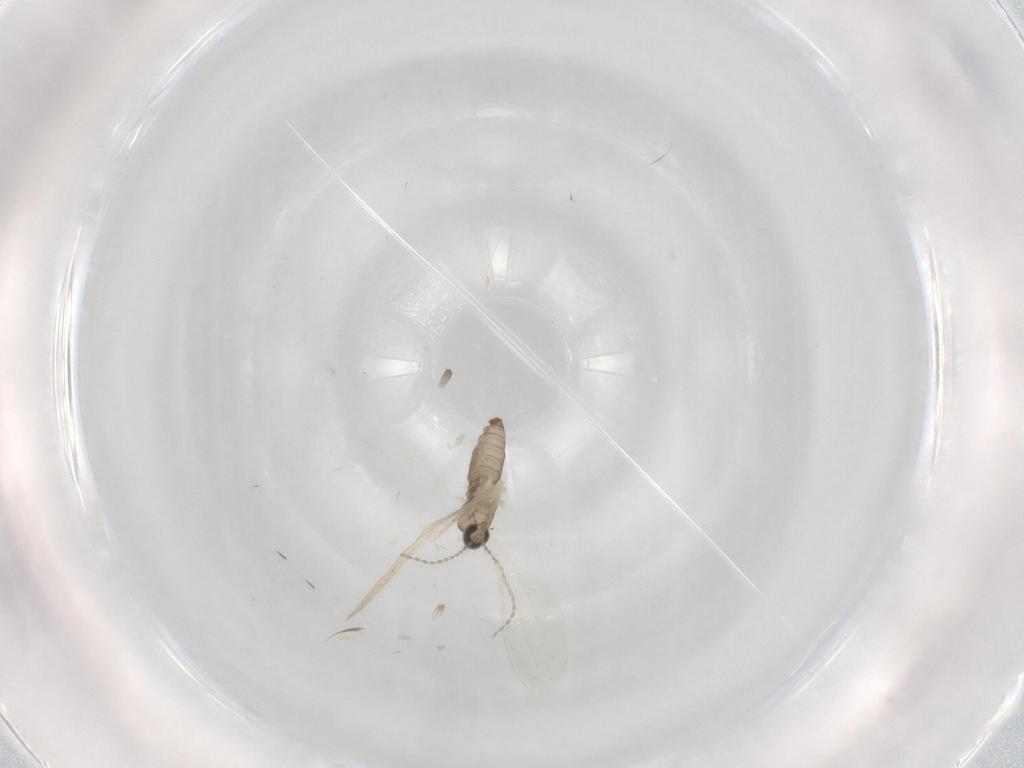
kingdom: Animalia
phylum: Arthropoda
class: Insecta
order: Diptera
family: Cecidomyiidae
